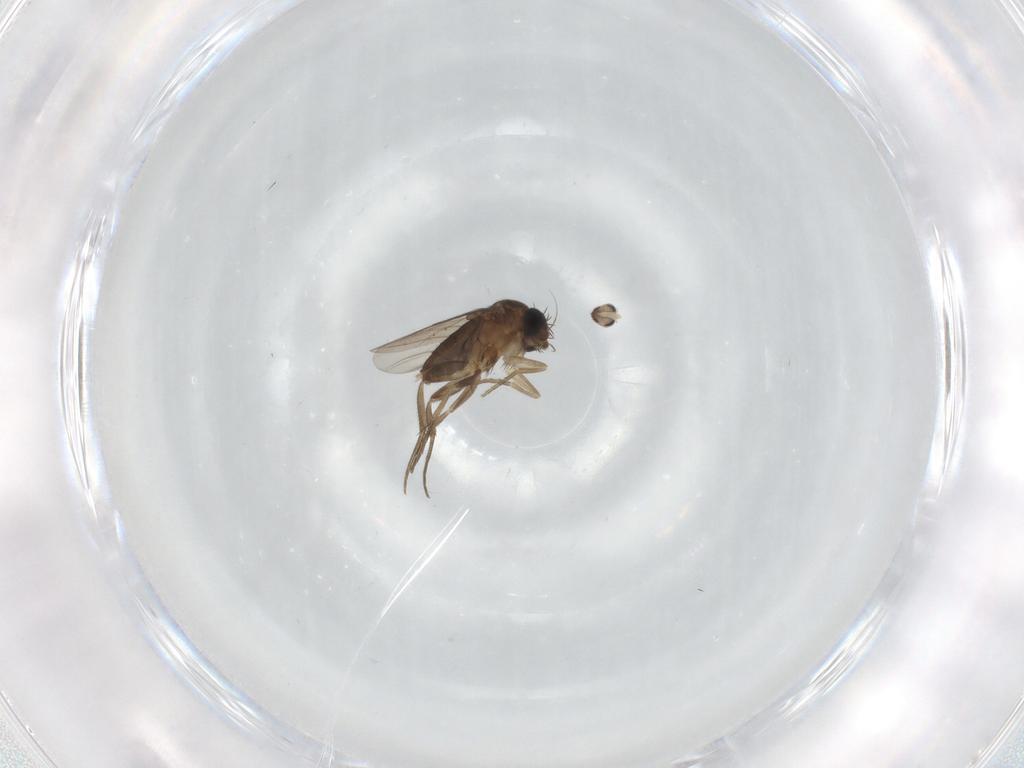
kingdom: Animalia
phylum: Arthropoda
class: Insecta
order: Diptera
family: Cecidomyiidae
